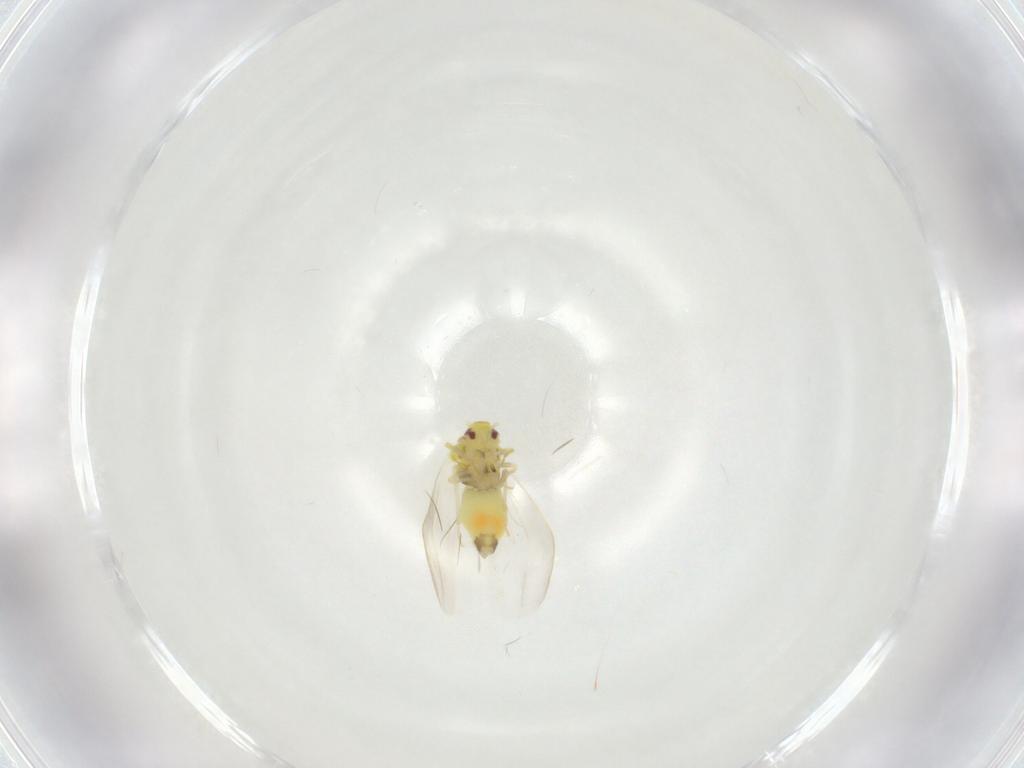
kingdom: Animalia
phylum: Arthropoda
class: Insecta
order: Hemiptera
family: Aleyrodidae
